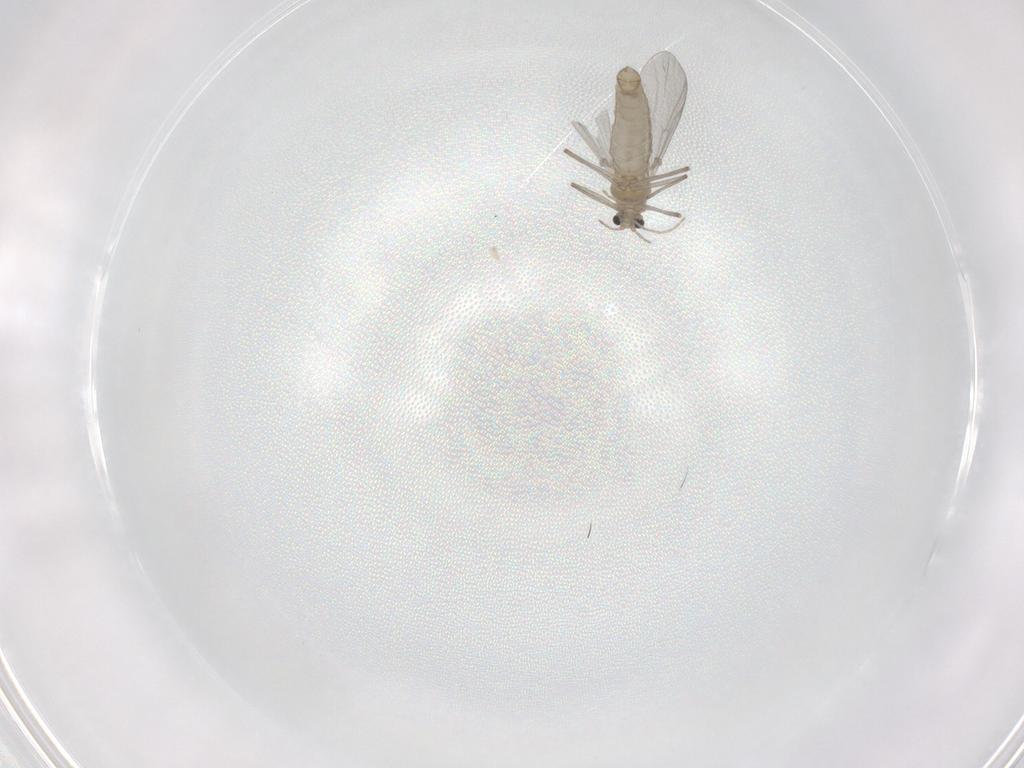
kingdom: Animalia
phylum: Arthropoda
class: Insecta
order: Diptera
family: Chironomidae
